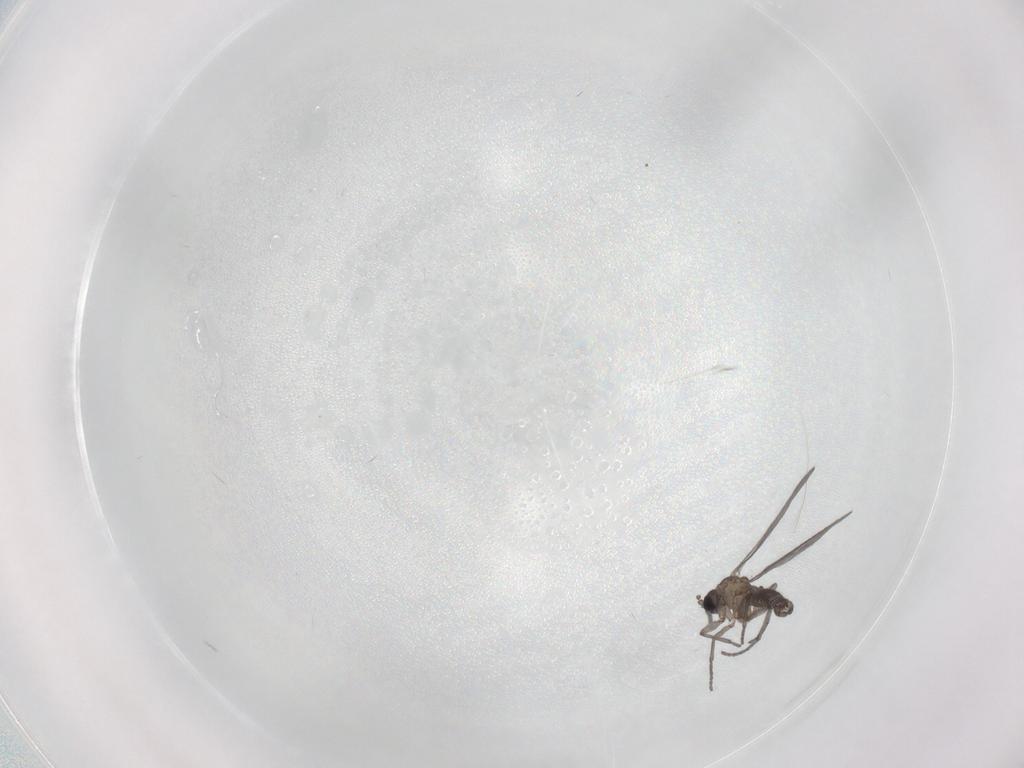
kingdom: Animalia
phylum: Arthropoda
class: Insecta
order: Diptera
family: Sciaridae
